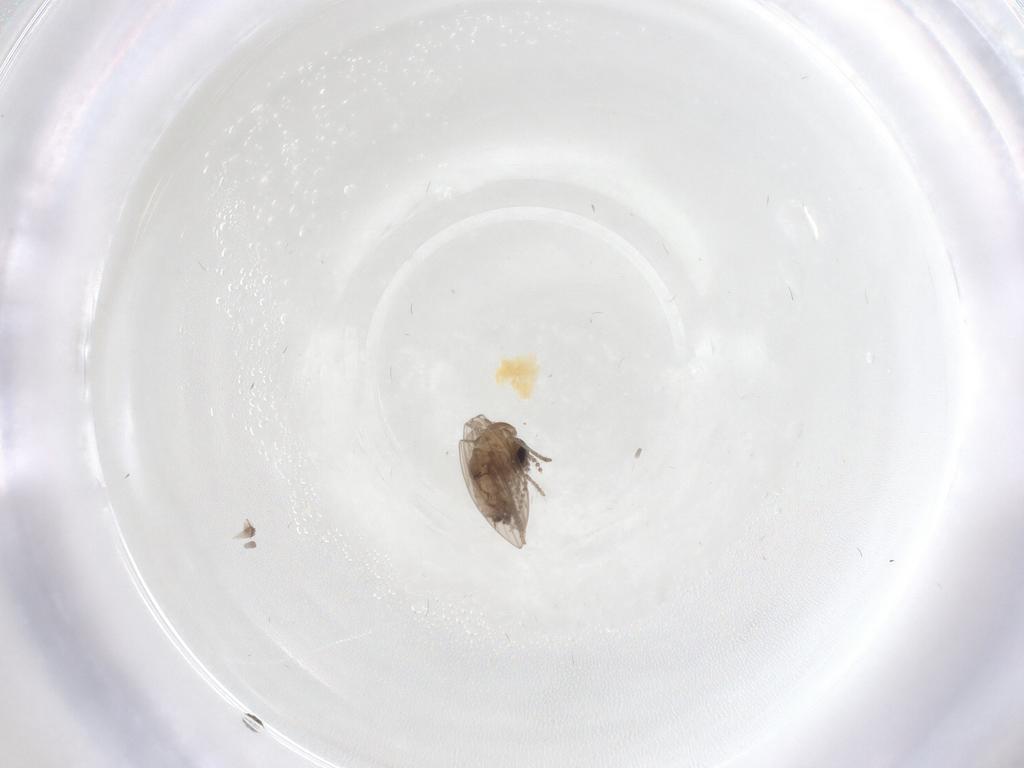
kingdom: Animalia
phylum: Arthropoda
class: Insecta
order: Diptera
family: Psychodidae
